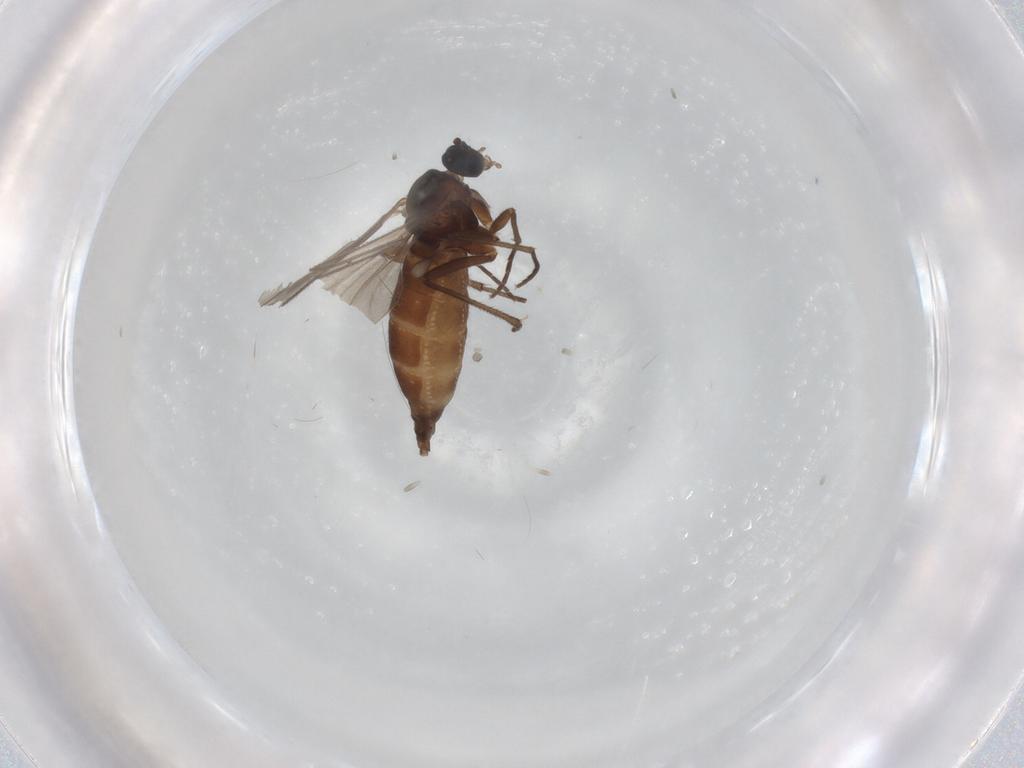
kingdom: Animalia
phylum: Arthropoda
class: Insecta
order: Diptera
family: Sciaridae
